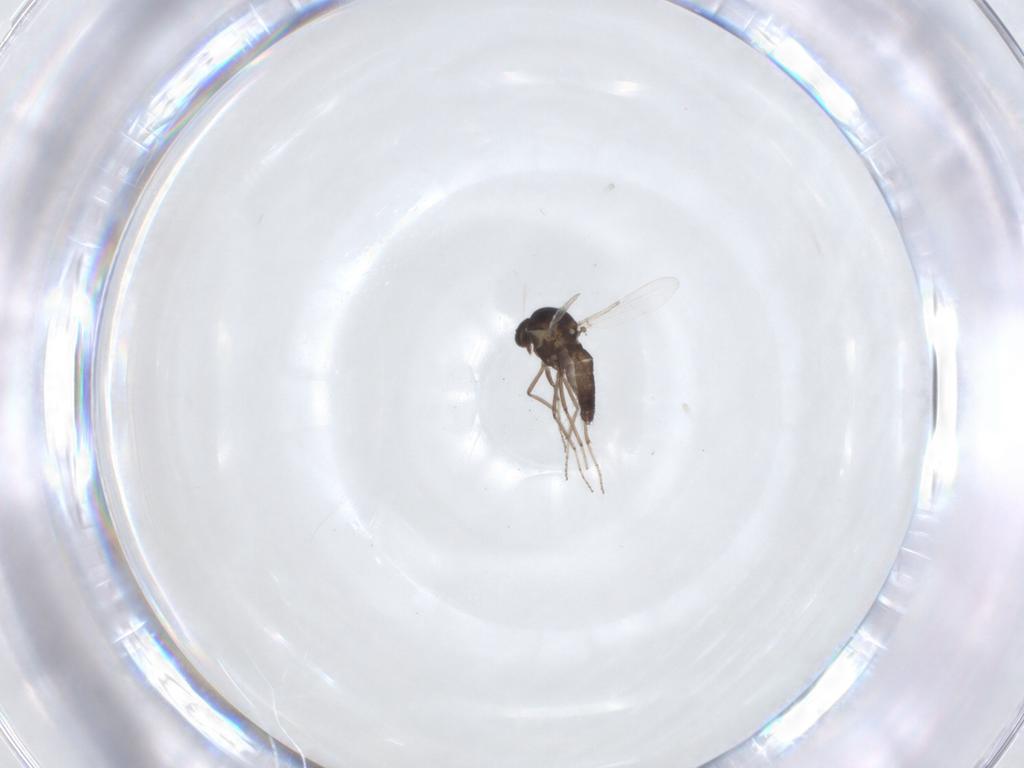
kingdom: Animalia
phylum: Arthropoda
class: Insecta
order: Diptera
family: Ceratopogonidae
